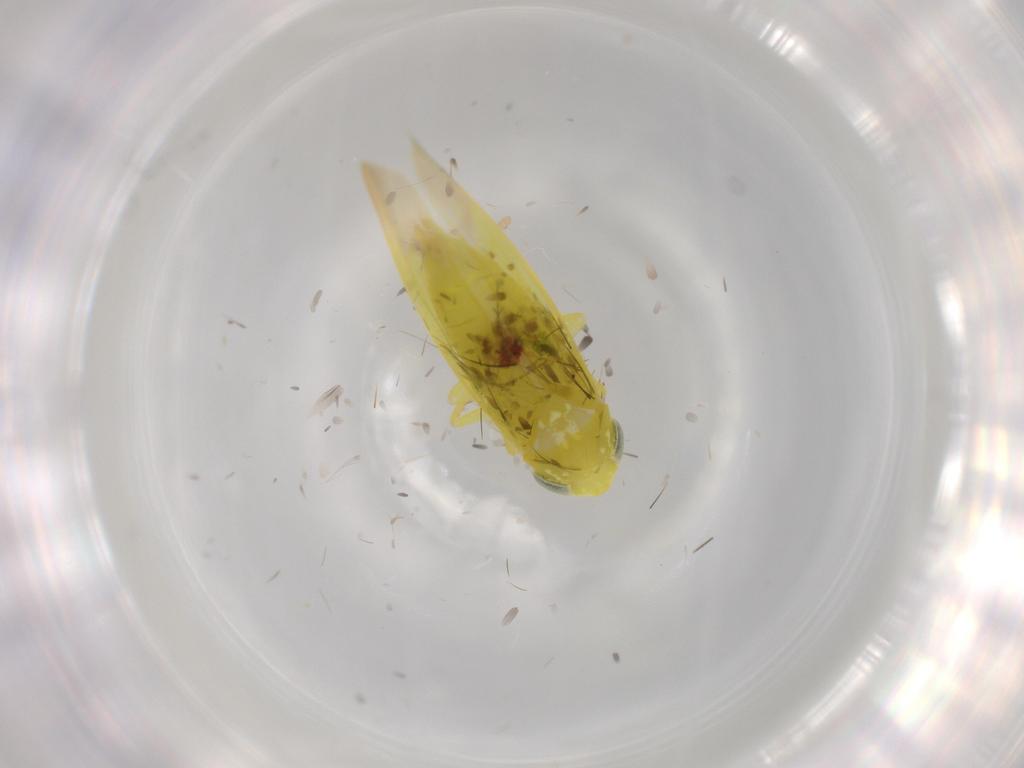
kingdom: Animalia
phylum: Arthropoda
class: Insecta
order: Hemiptera
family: Cicadellidae
